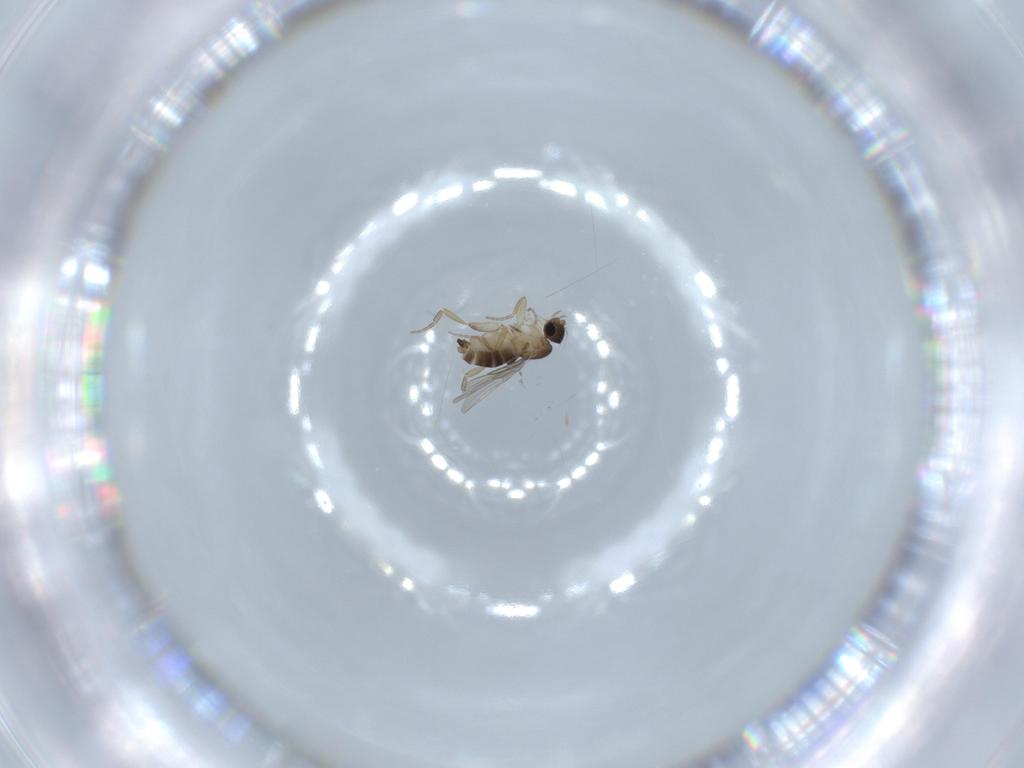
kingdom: Animalia
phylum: Arthropoda
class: Insecta
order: Diptera
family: Phoridae
